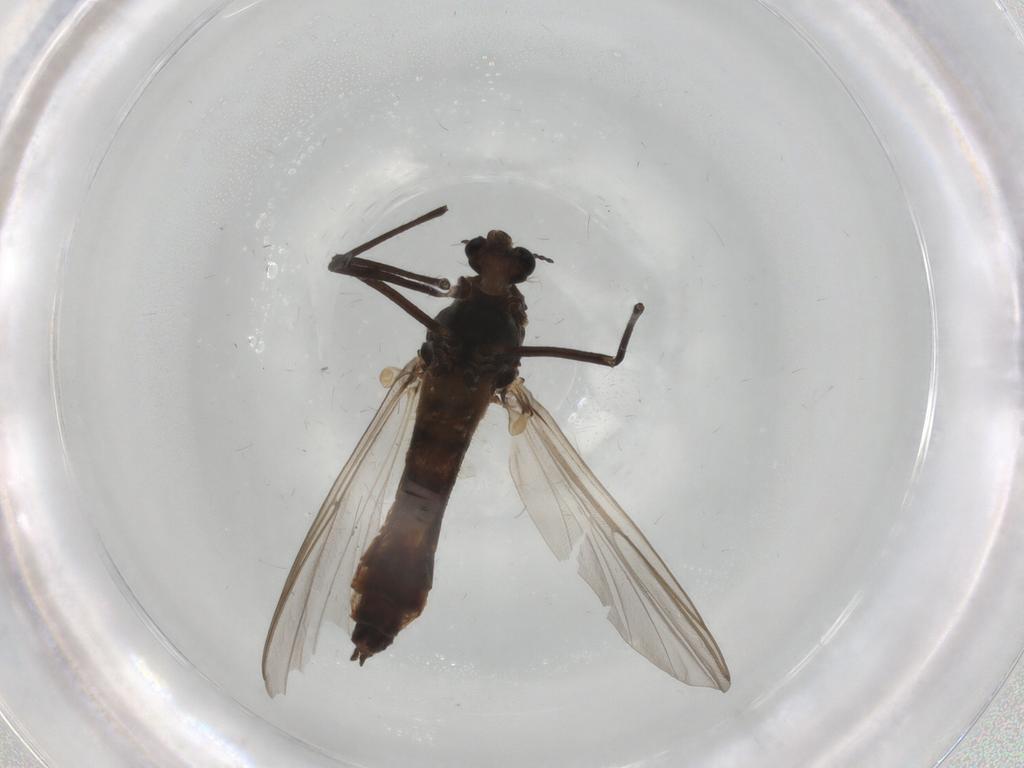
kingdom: Animalia
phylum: Arthropoda
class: Insecta
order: Diptera
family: Chironomidae
